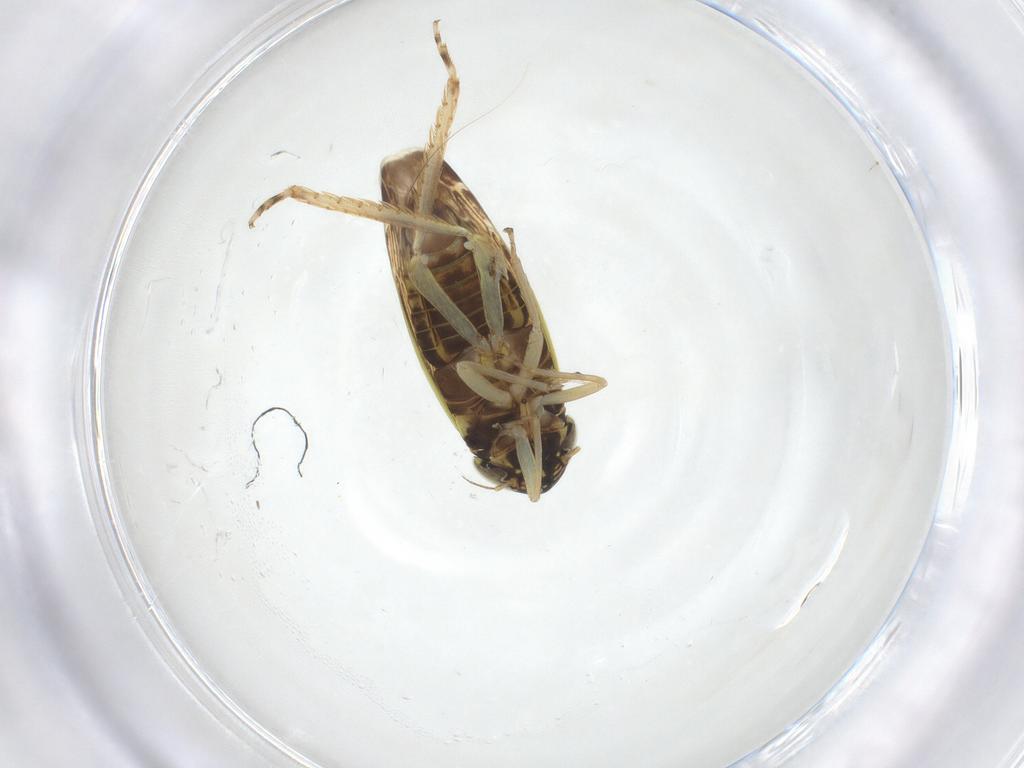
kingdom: Animalia
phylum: Arthropoda
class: Insecta
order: Hemiptera
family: Cicadellidae
